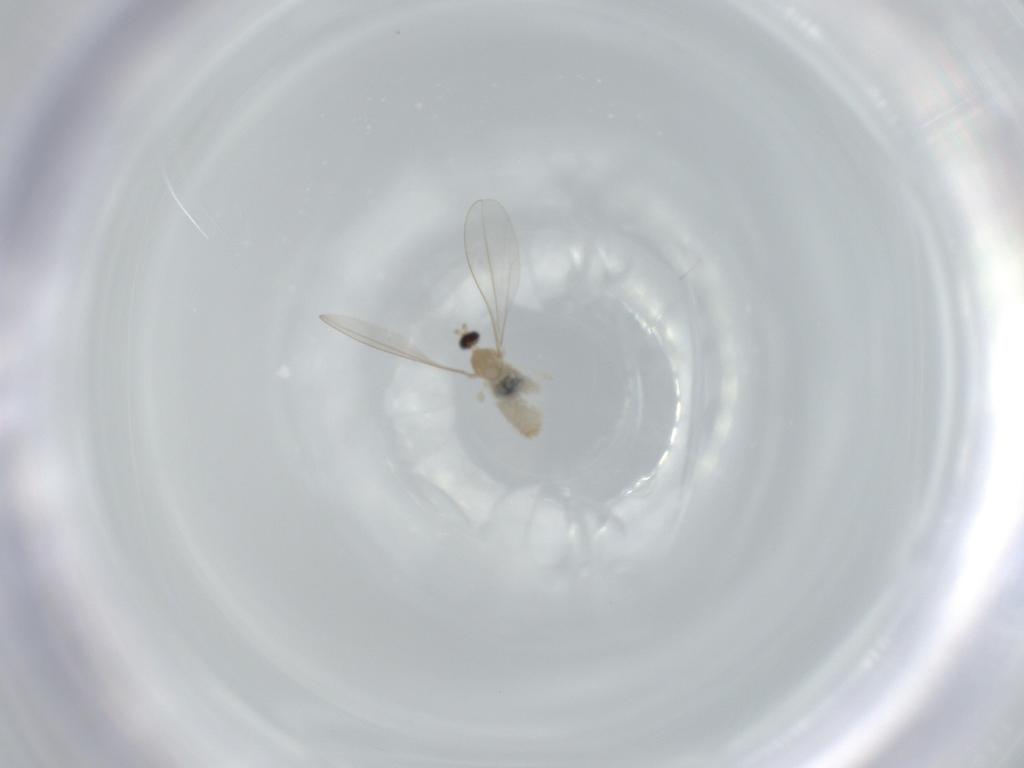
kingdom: Animalia
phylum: Arthropoda
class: Insecta
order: Diptera
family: Cecidomyiidae
